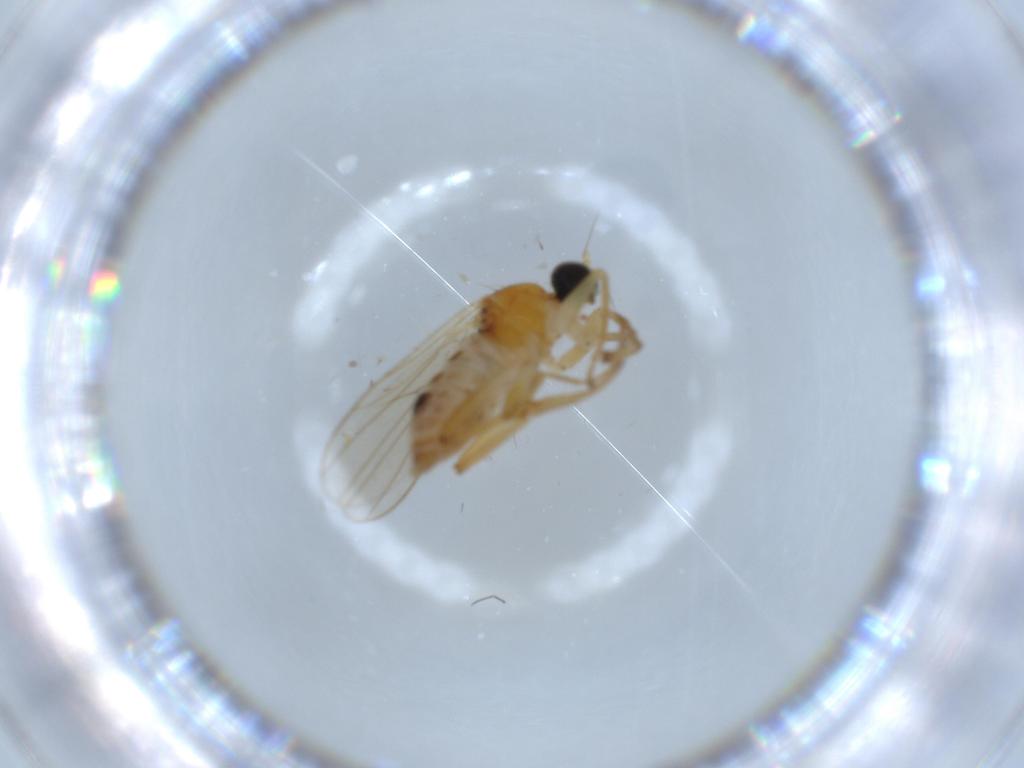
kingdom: Animalia
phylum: Arthropoda
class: Insecta
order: Diptera
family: Hybotidae
